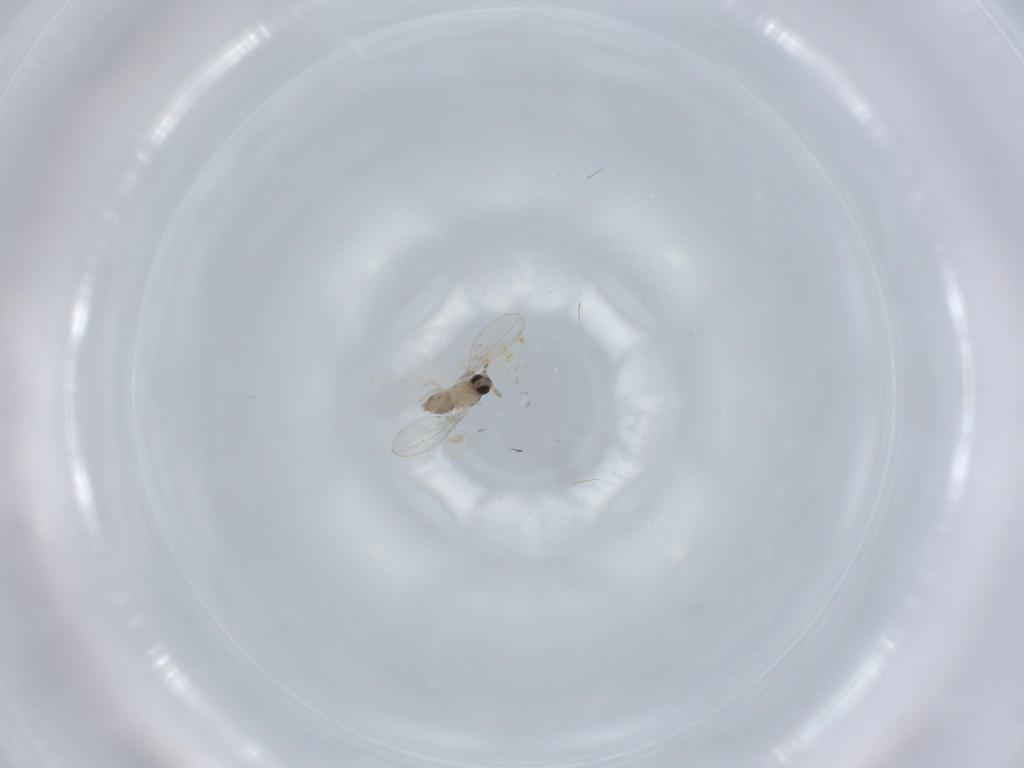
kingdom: Animalia
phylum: Arthropoda
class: Insecta
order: Diptera
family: Cecidomyiidae
